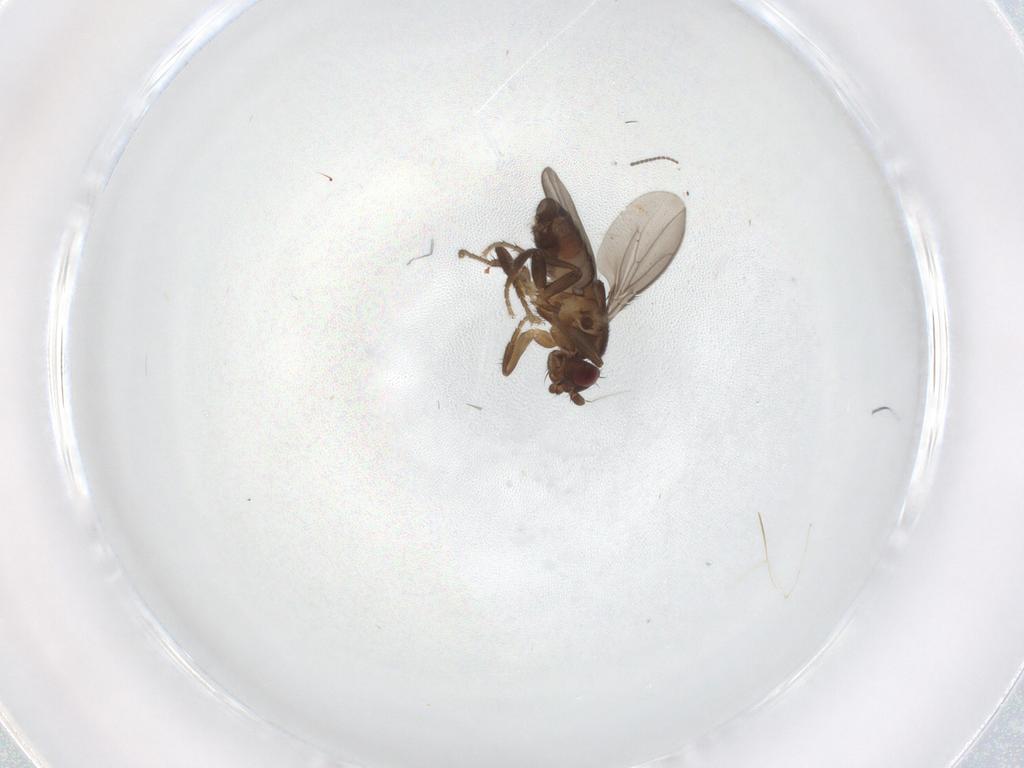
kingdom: Animalia
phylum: Arthropoda
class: Insecta
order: Diptera
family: Sphaeroceridae
